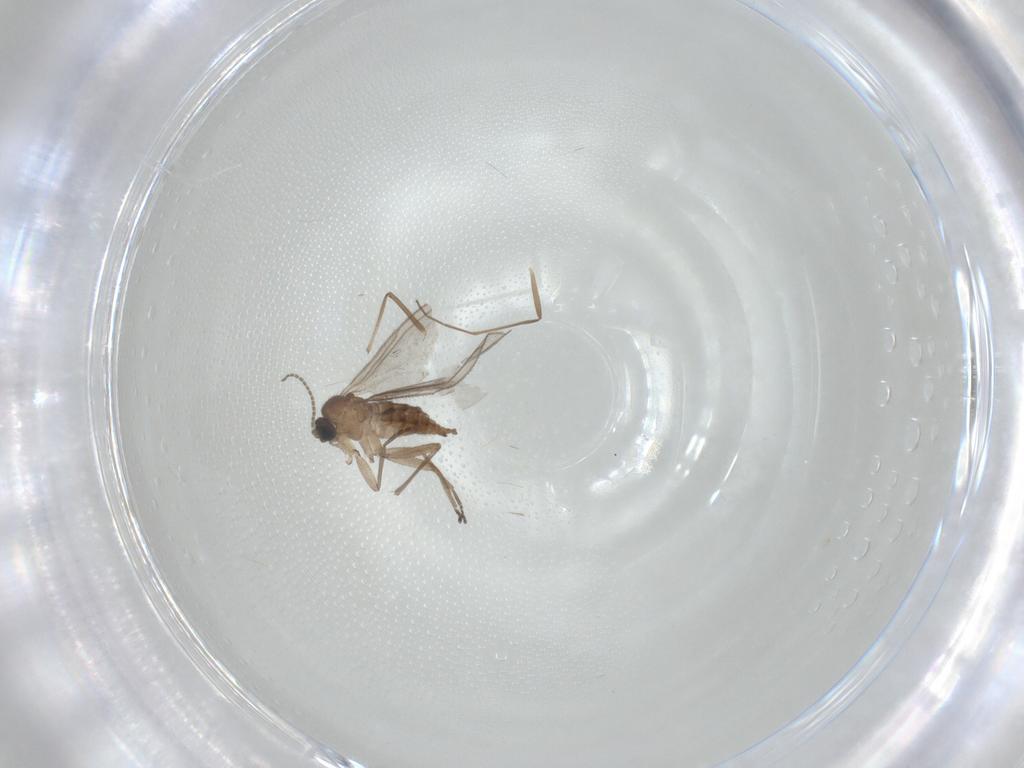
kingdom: Animalia
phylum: Arthropoda
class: Insecta
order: Diptera
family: Sciaridae
